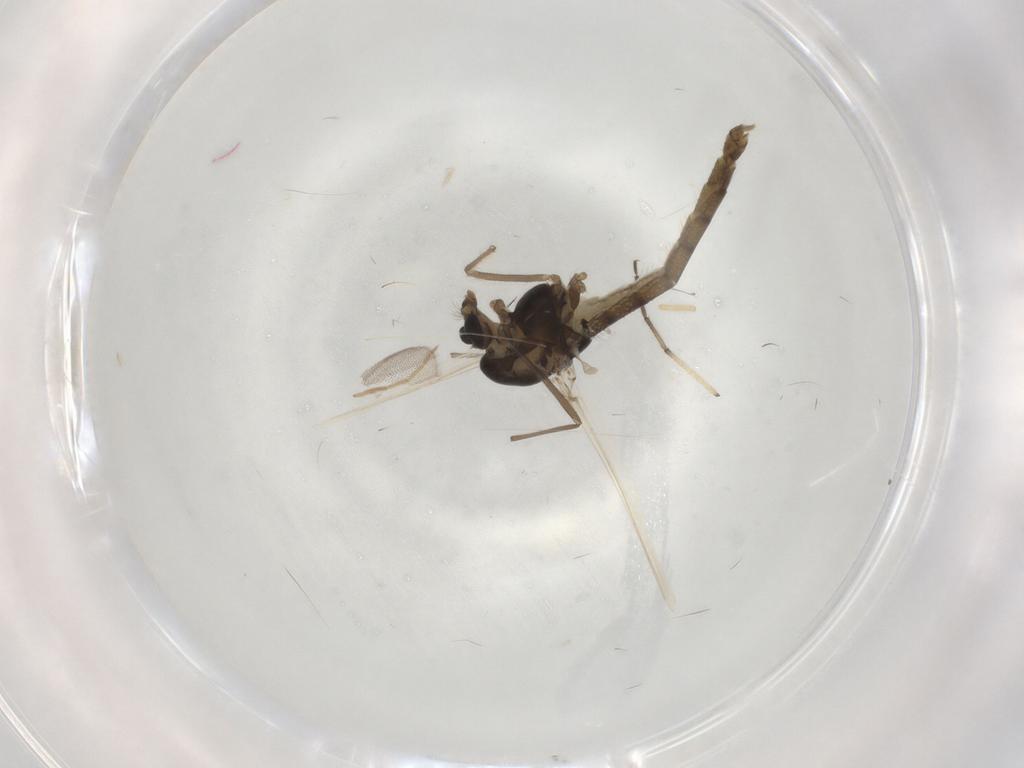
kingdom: Animalia
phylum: Arthropoda
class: Insecta
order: Diptera
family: Chironomidae
